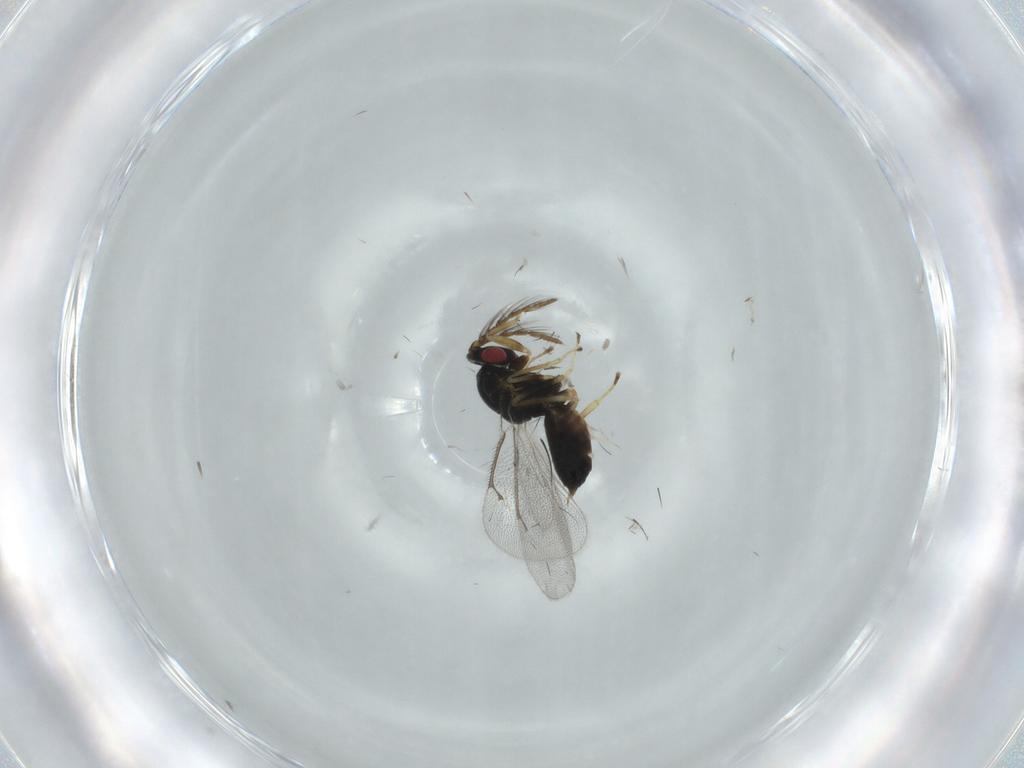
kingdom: Animalia
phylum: Arthropoda
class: Insecta
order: Hymenoptera
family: Eulophidae
